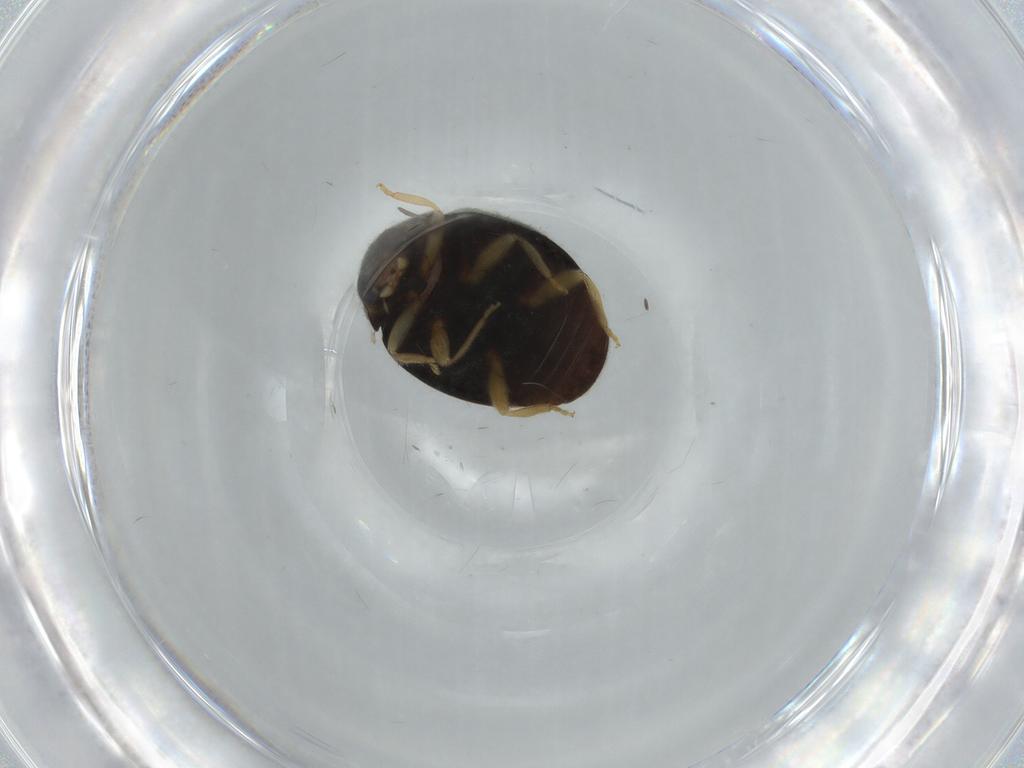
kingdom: Animalia
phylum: Arthropoda
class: Insecta
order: Coleoptera
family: Coccinellidae
